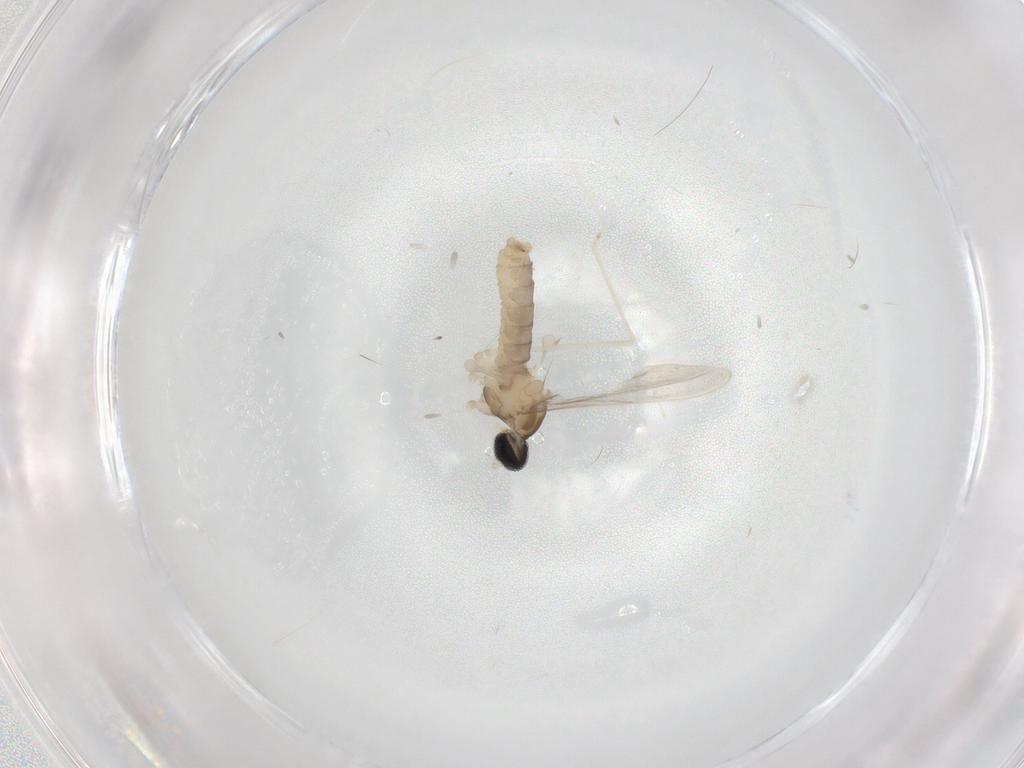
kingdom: Animalia
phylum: Arthropoda
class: Insecta
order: Diptera
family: Cecidomyiidae
